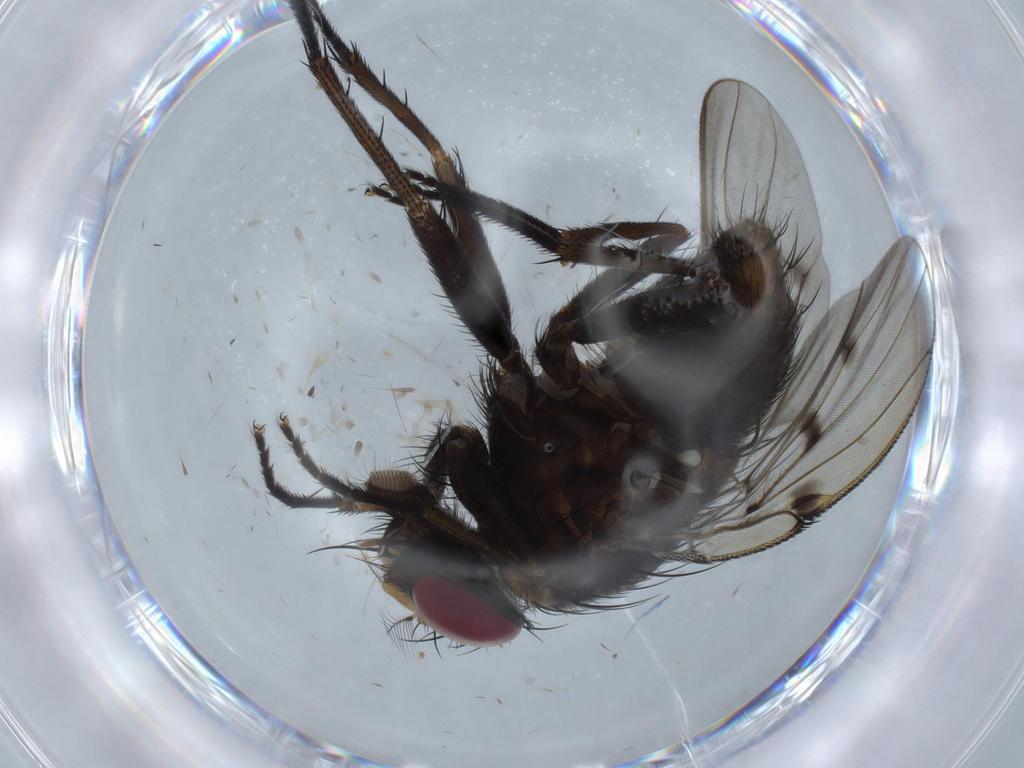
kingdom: Animalia
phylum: Arthropoda
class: Insecta
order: Diptera
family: Muscidae
